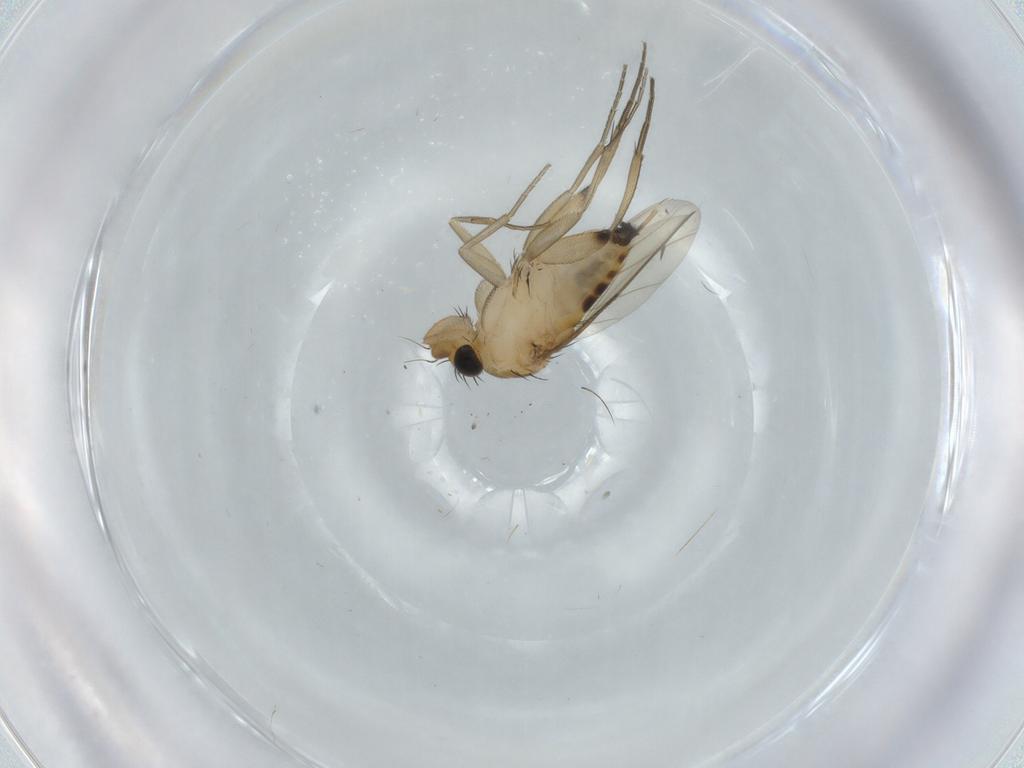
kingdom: Animalia
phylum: Arthropoda
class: Insecta
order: Diptera
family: Phoridae
